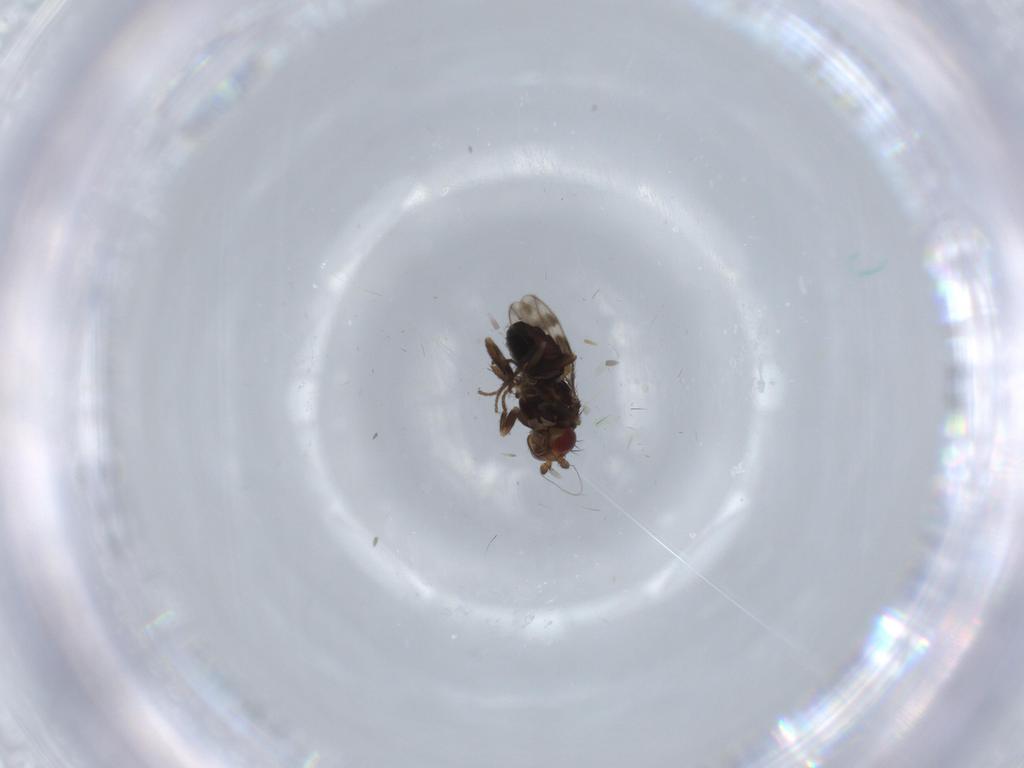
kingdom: Animalia
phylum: Arthropoda
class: Insecta
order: Diptera
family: Sphaeroceridae
